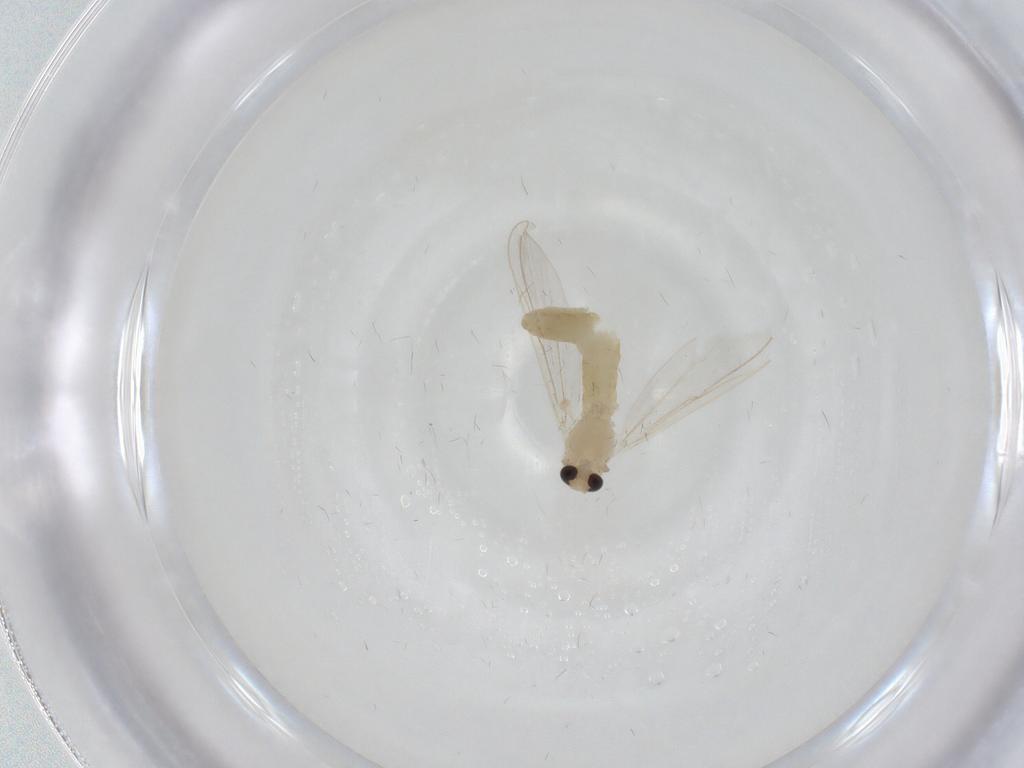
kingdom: Animalia
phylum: Arthropoda
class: Insecta
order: Diptera
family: Chironomidae
